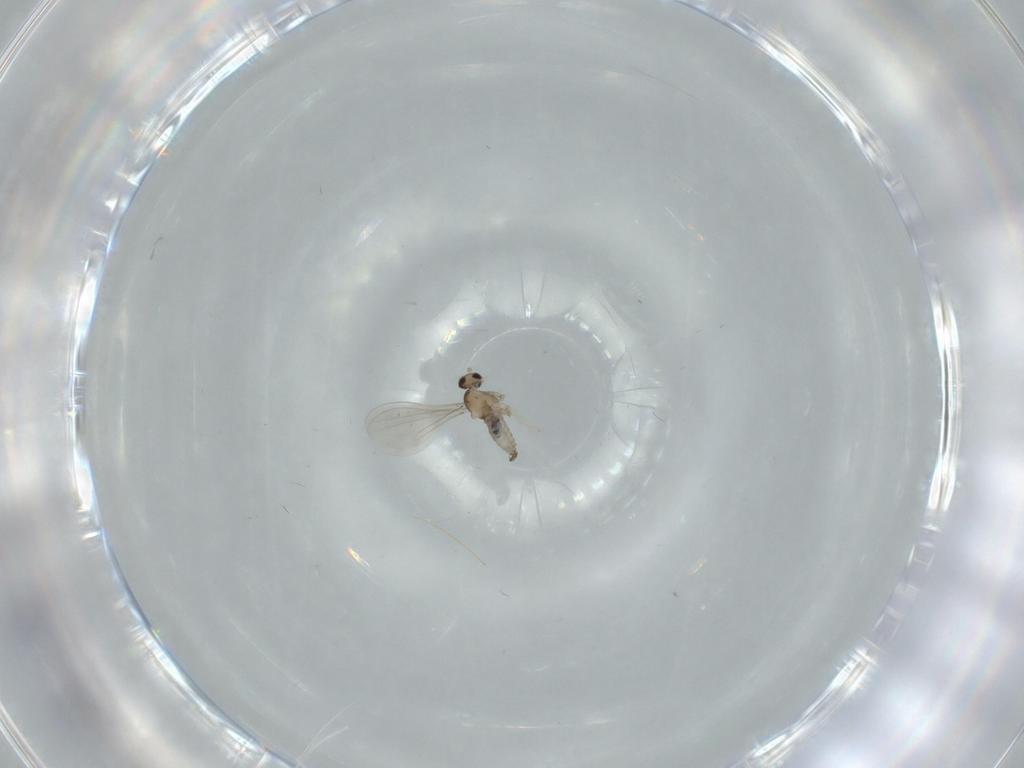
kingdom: Animalia
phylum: Arthropoda
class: Insecta
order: Diptera
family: Cecidomyiidae
